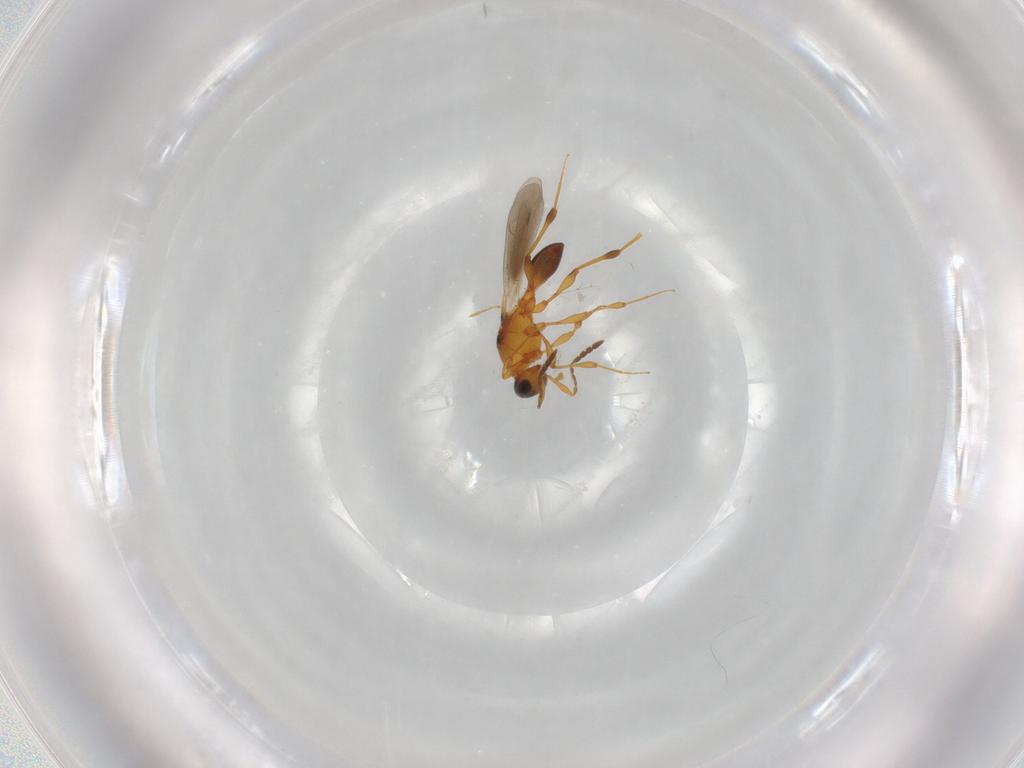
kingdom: Animalia
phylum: Arthropoda
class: Insecta
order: Hymenoptera
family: Platygastridae
